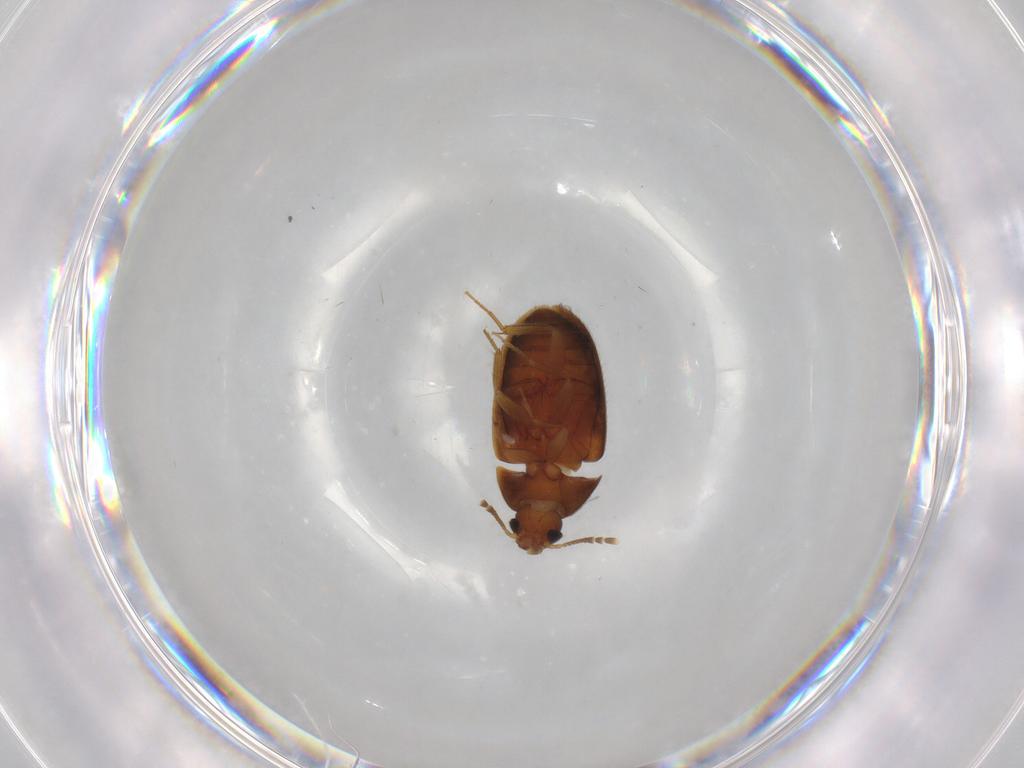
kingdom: Animalia
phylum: Arthropoda
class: Insecta
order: Coleoptera
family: Mycetophagidae
